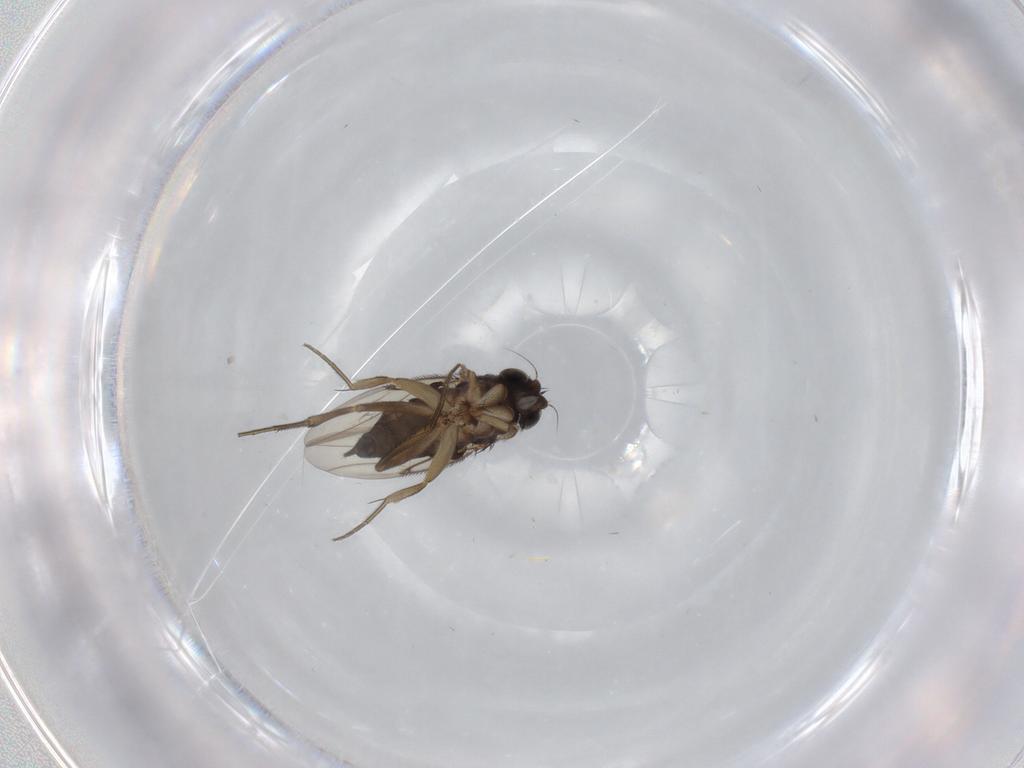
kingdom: Animalia
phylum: Arthropoda
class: Insecta
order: Diptera
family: Phoridae
